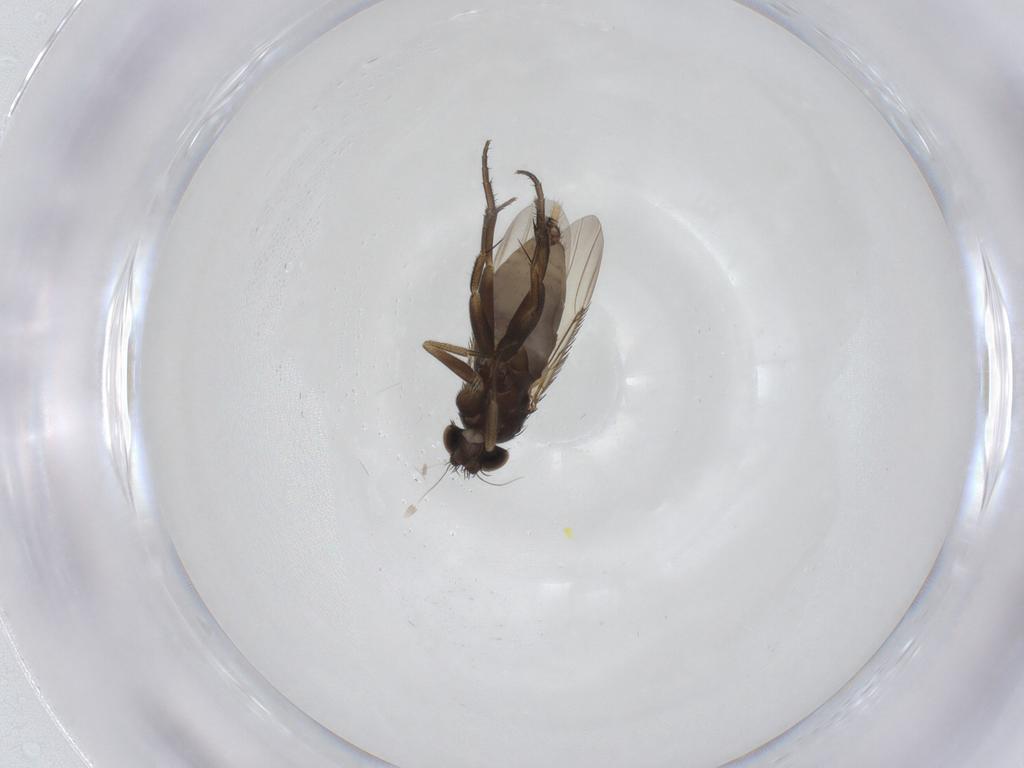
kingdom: Animalia
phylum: Arthropoda
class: Insecta
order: Diptera
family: Phoridae
